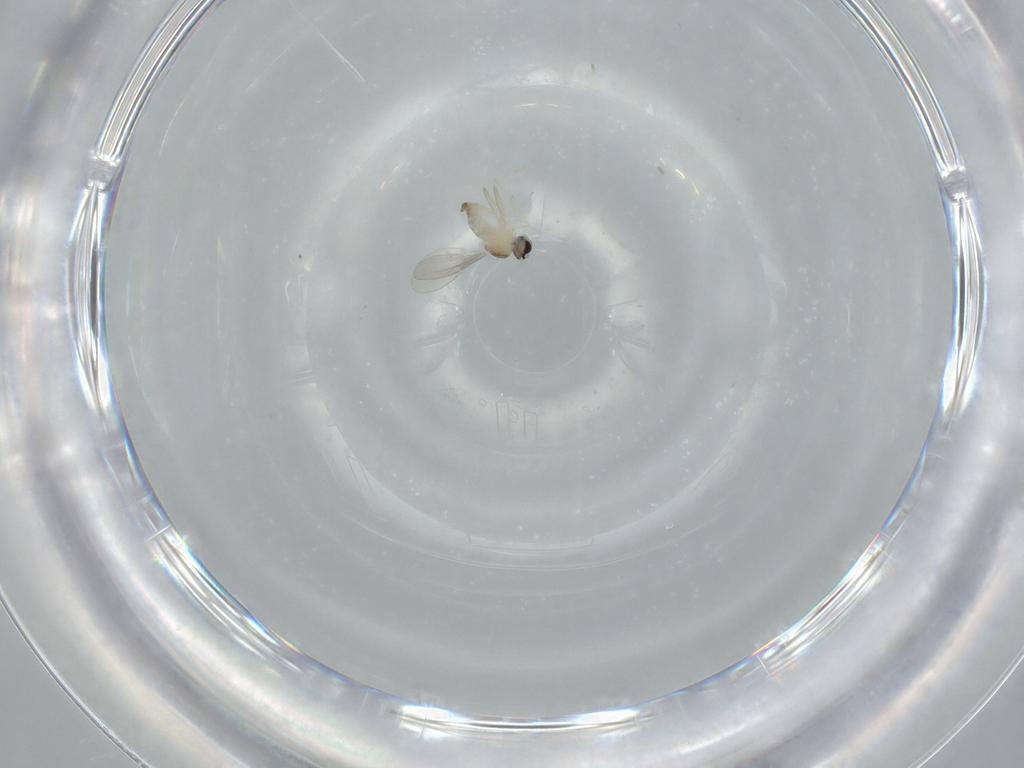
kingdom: Animalia
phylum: Arthropoda
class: Insecta
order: Diptera
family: Cecidomyiidae
